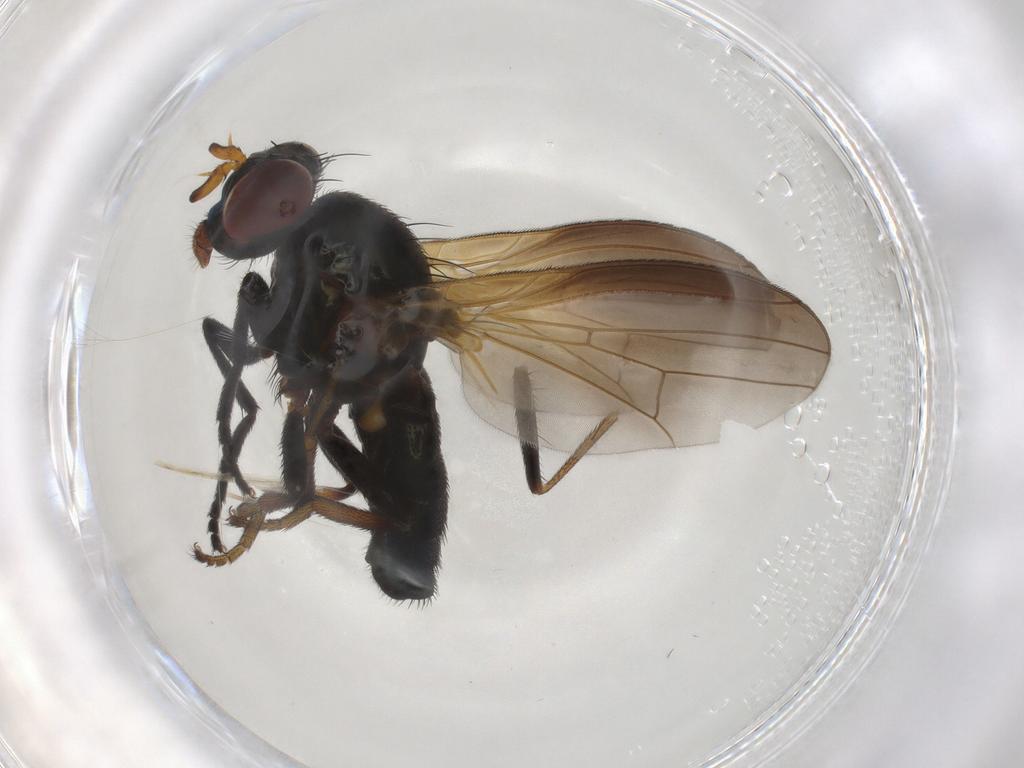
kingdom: Animalia
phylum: Arthropoda
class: Insecta
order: Diptera
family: Lauxaniidae
